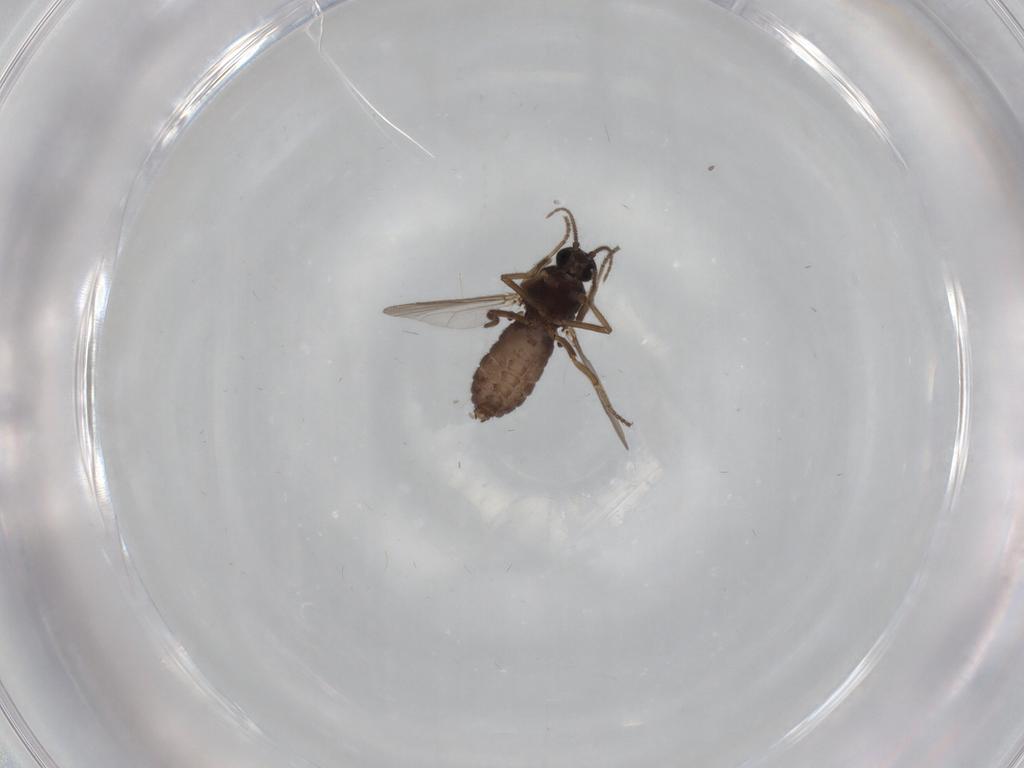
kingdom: Animalia
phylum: Arthropoda
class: Insecta
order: Diptera
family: Ceratopogonidae
